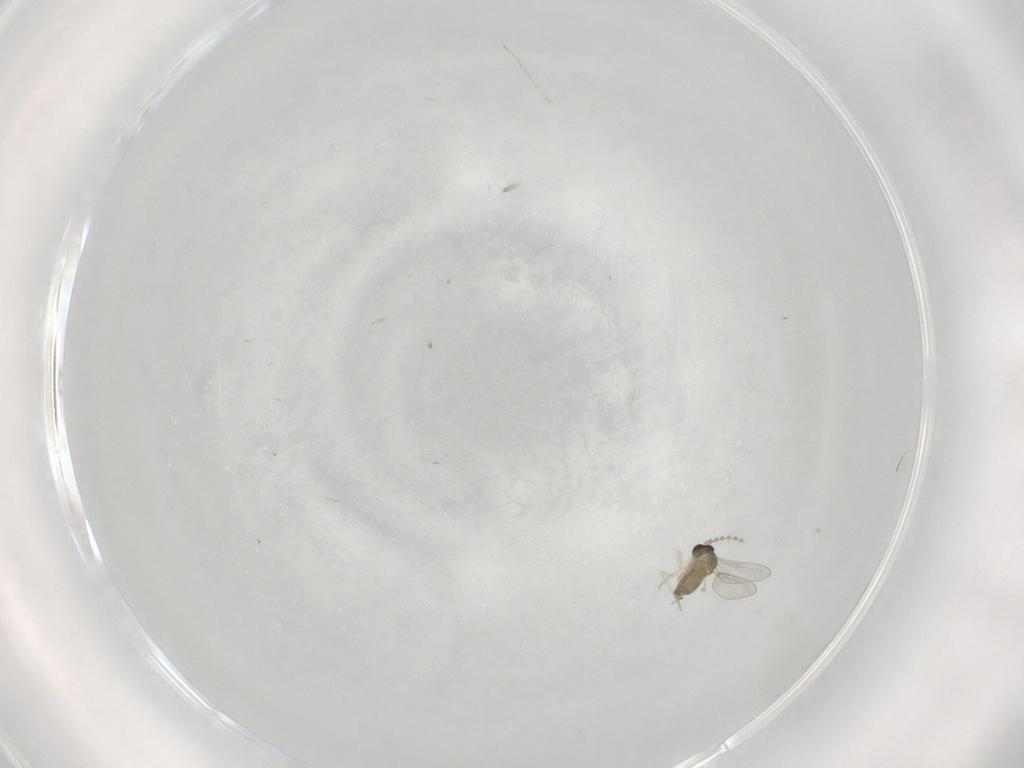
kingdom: Animalia
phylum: Arthropoda
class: Insecta
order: Diptera
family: Cecidomyiidae
